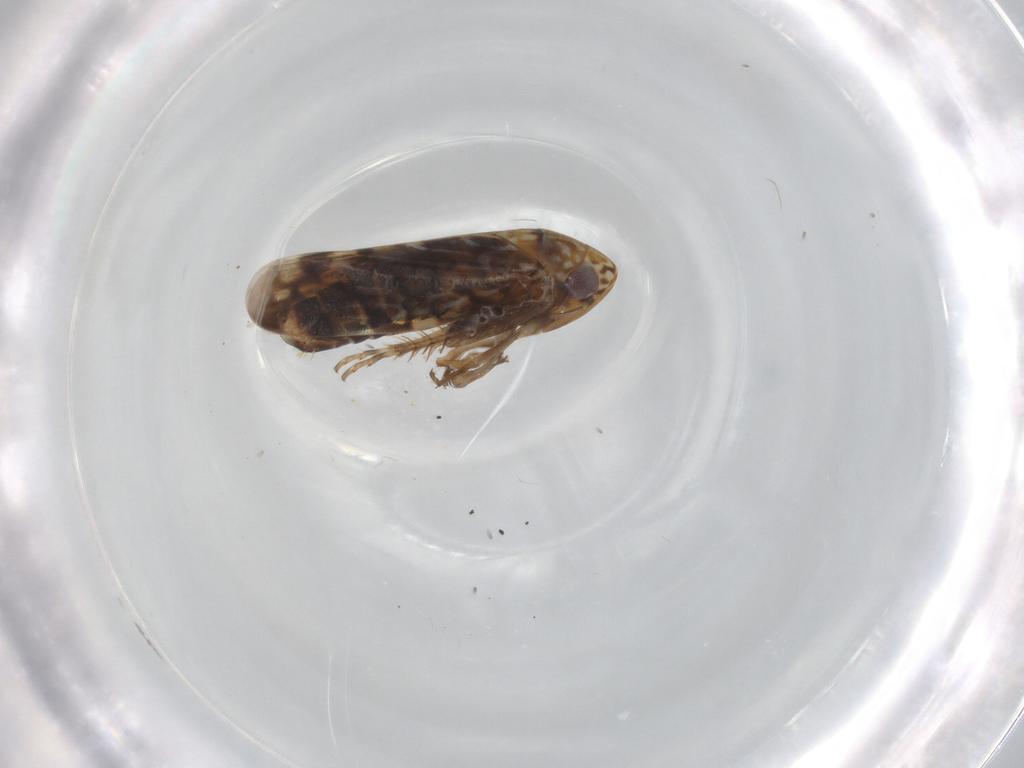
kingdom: Animalia
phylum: Arthropoda
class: Insecta
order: Hemiptera
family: Cicadellidae
